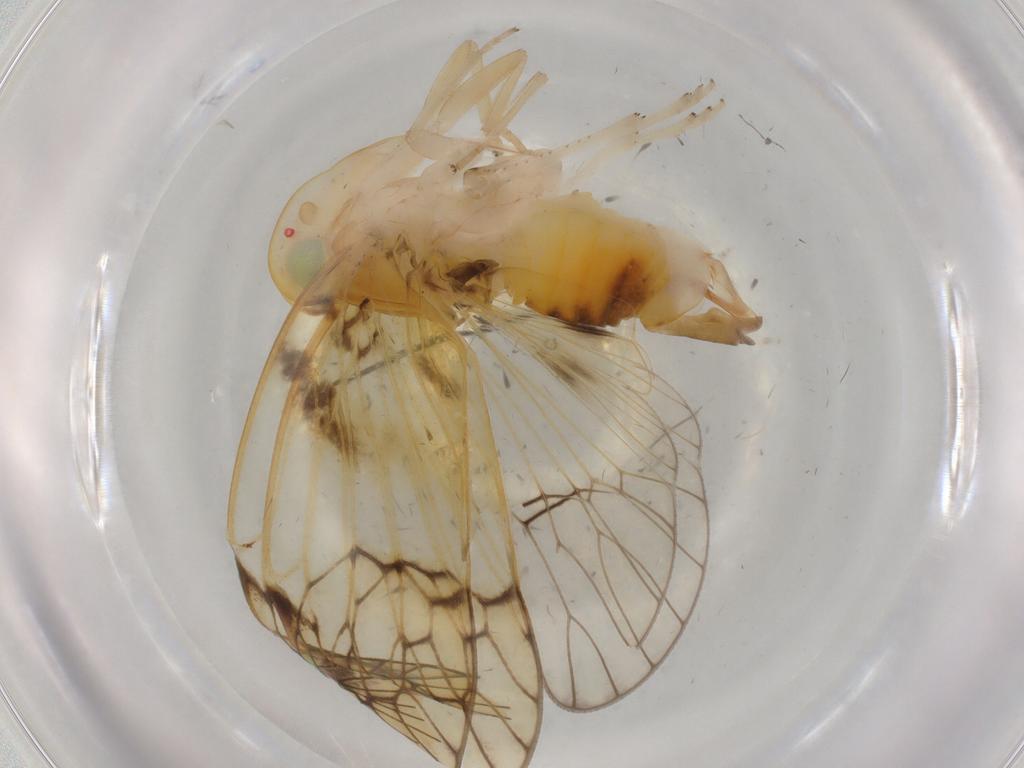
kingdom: Animalia
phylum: Arthropoda
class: Insecta
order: Hemiptera
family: Cixiidae
